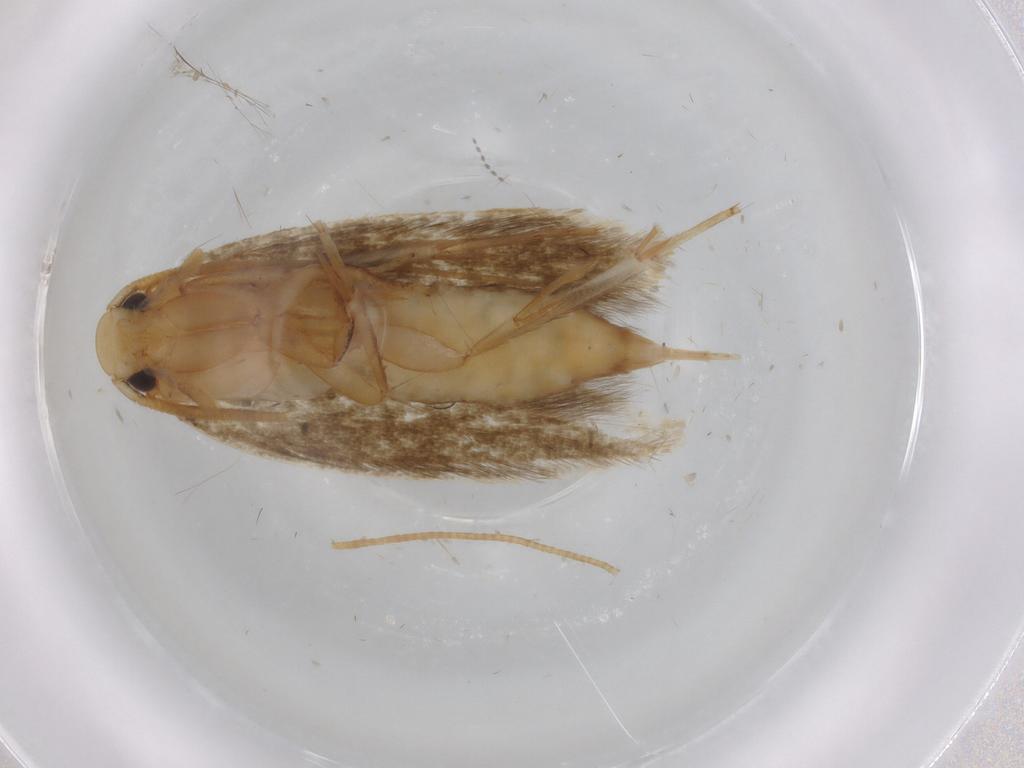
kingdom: Animalia
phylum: Arthropoda
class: Insecta
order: Lepidoptera
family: Tineidae
